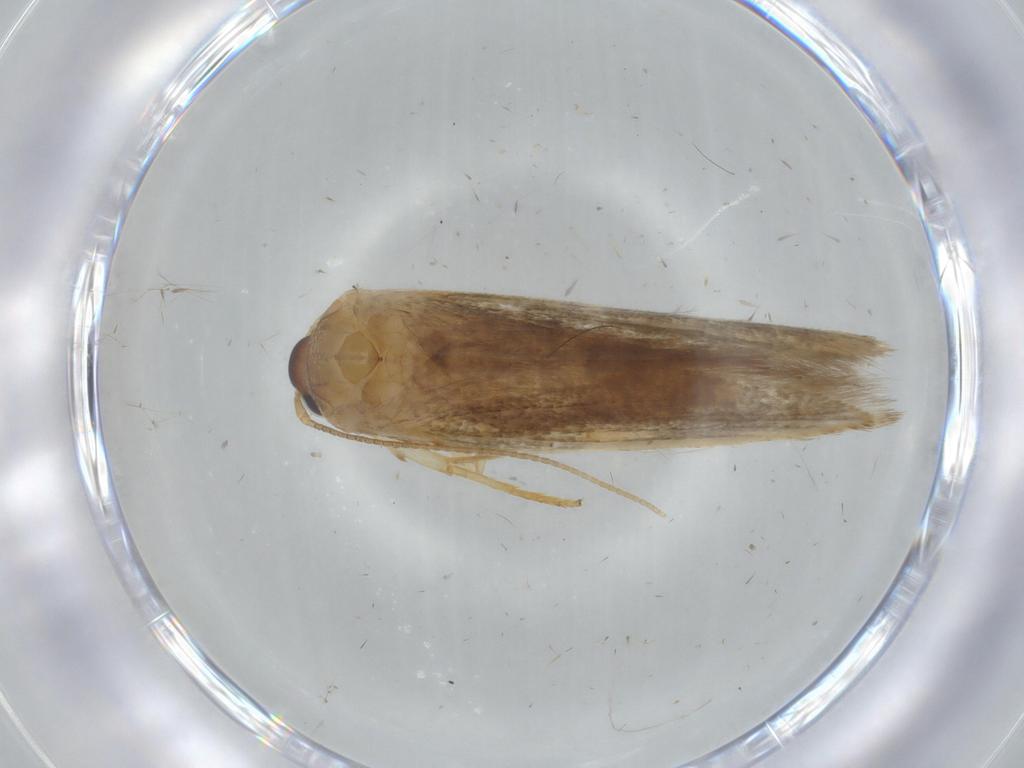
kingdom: Animalia
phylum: Arthropoda
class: Insecta
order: Lepidoptera
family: Tineidae
